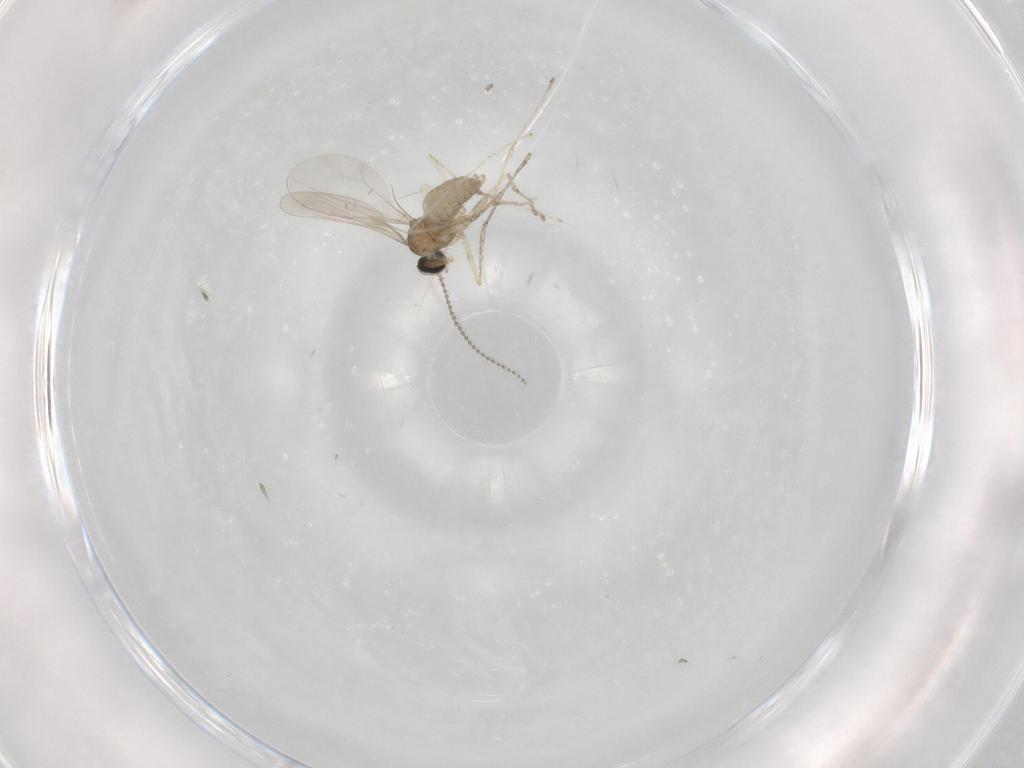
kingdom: Animalia
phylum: Arthropoda
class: Insecta
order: Diptera
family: Cecidomyiidae
